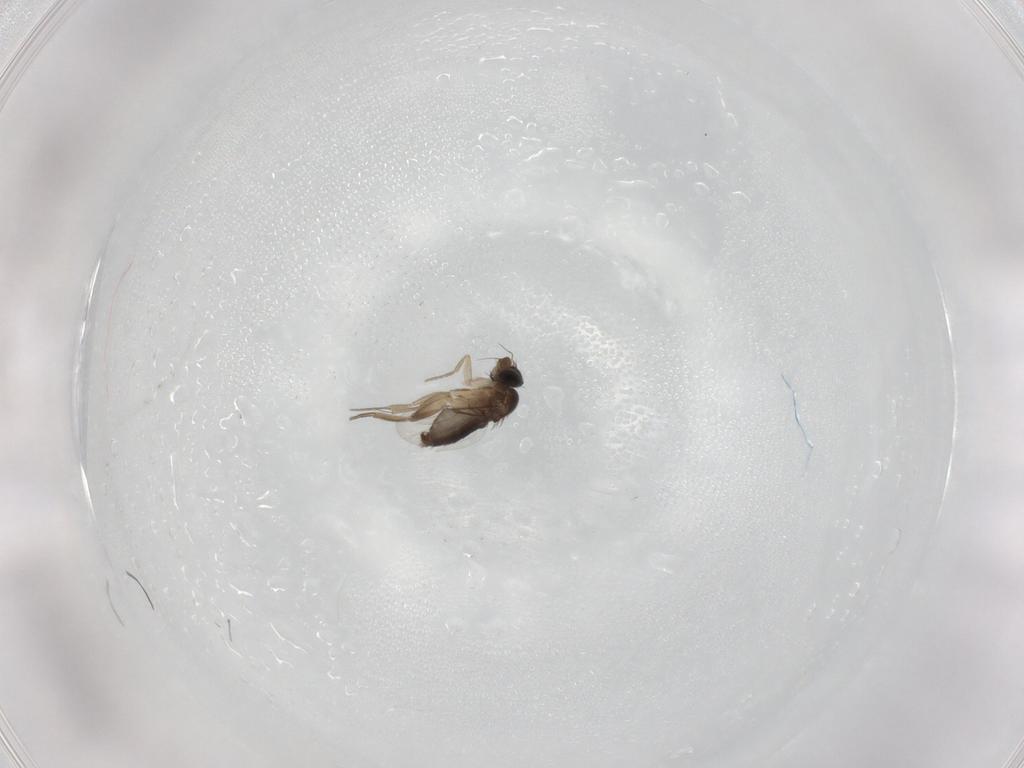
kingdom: Animalia
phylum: Arthropoda
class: Insecta
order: Diptera
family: Phoridae
